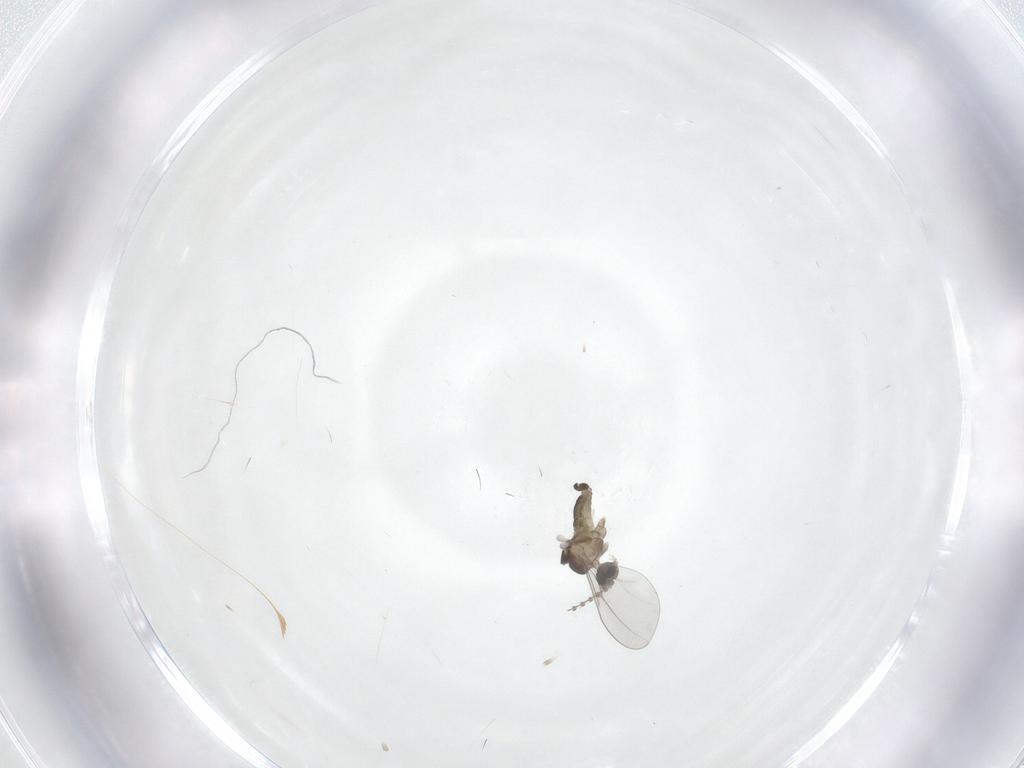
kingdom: Animalia
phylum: Arthropoda
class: Insecta
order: Diptera
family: Cecidomyiidae
